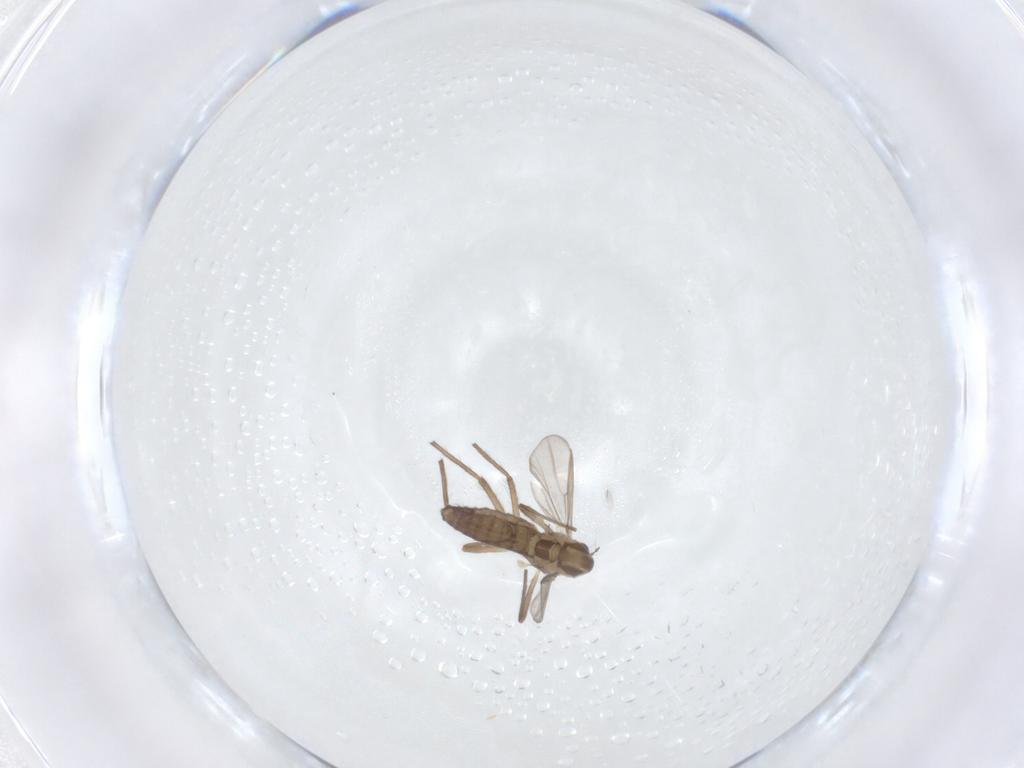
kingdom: Animalia
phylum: Arthropoda
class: Insecta
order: Diptera
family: Chironomidae
